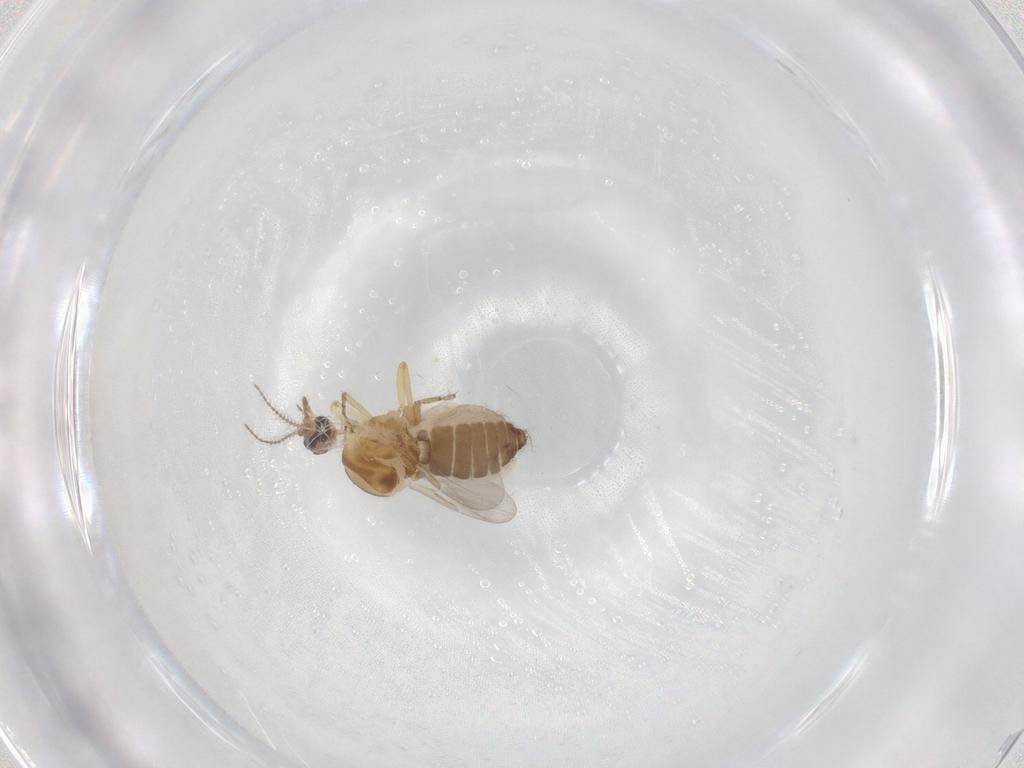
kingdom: Animalia
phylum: Arthropoda
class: Insecta
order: Diptera
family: Ceratopogonidae
